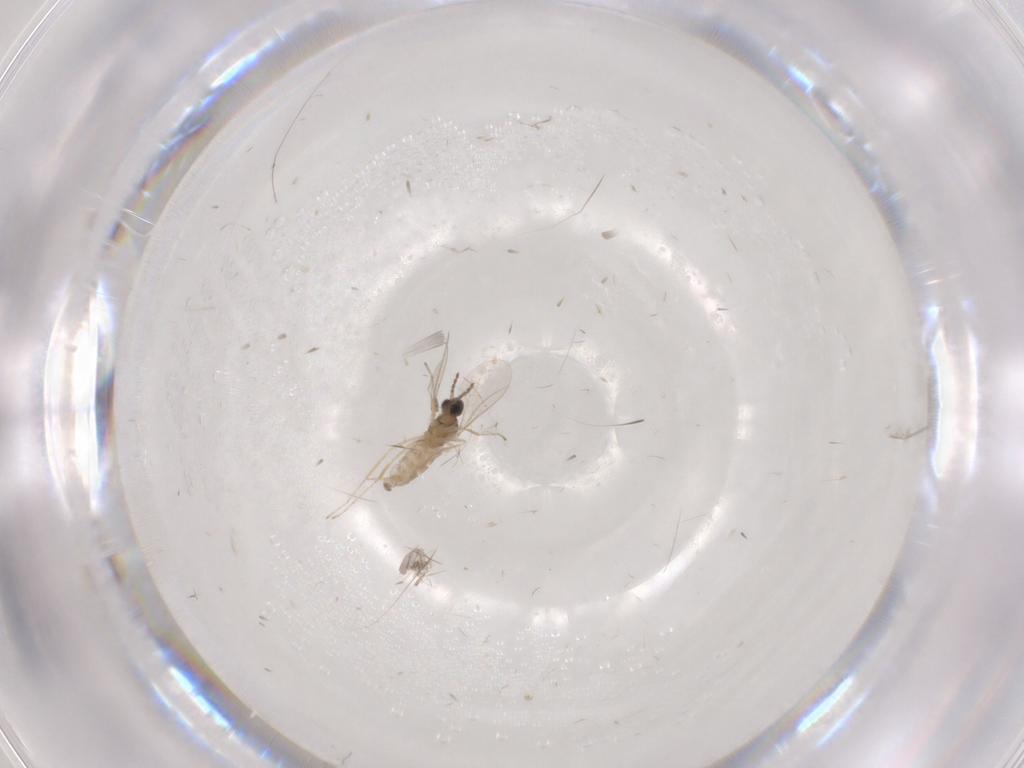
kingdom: Animalia
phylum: Arthropoda
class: Insecta
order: Diptera
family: Cecidomyiidae
